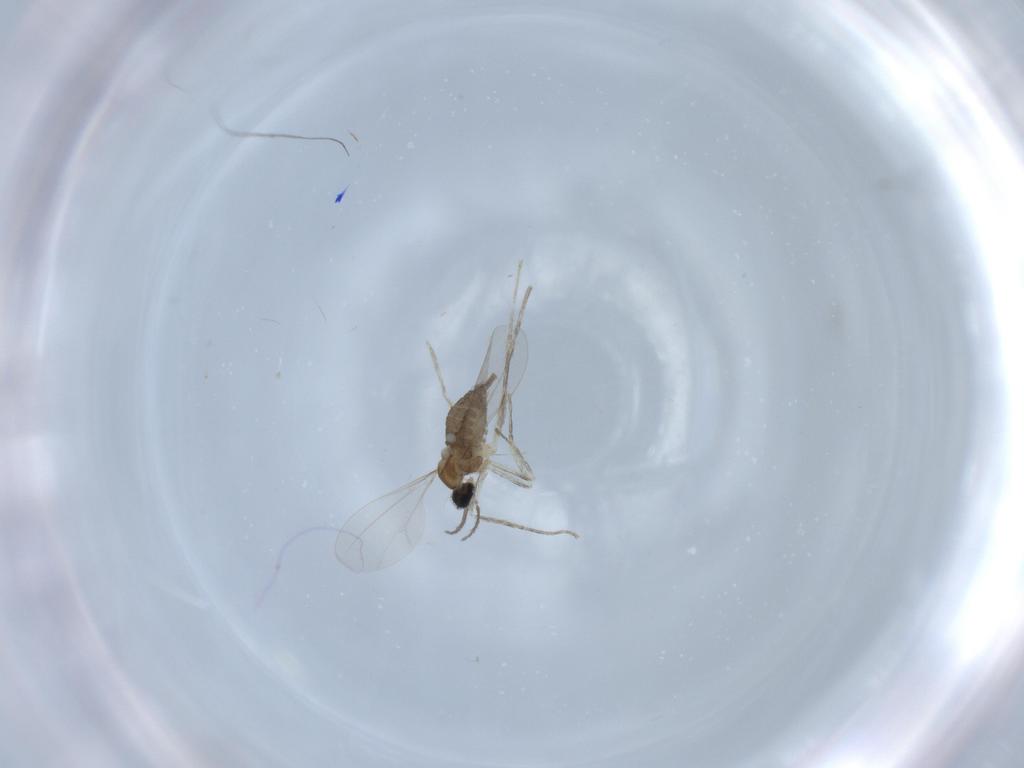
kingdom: Animalia
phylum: Arthropoda
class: Insecta
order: Diptera
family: Cecidomyiidae
